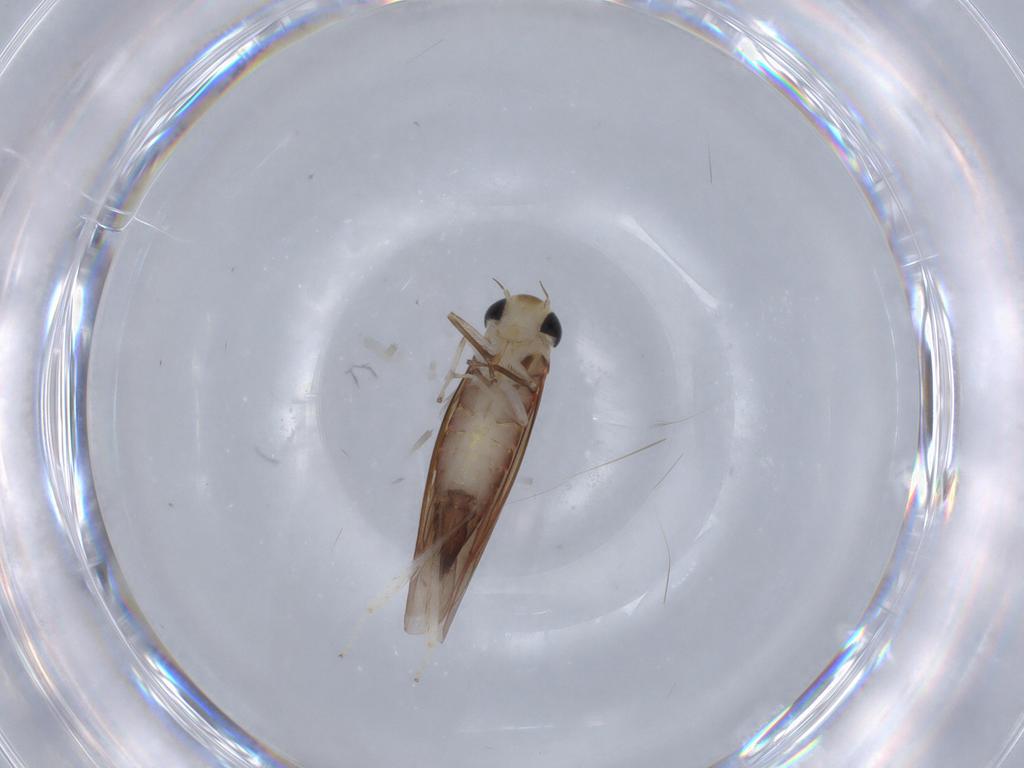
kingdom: Animalia
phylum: Arthropoda
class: Insecta
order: Hemiptera
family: Cicadellidae
